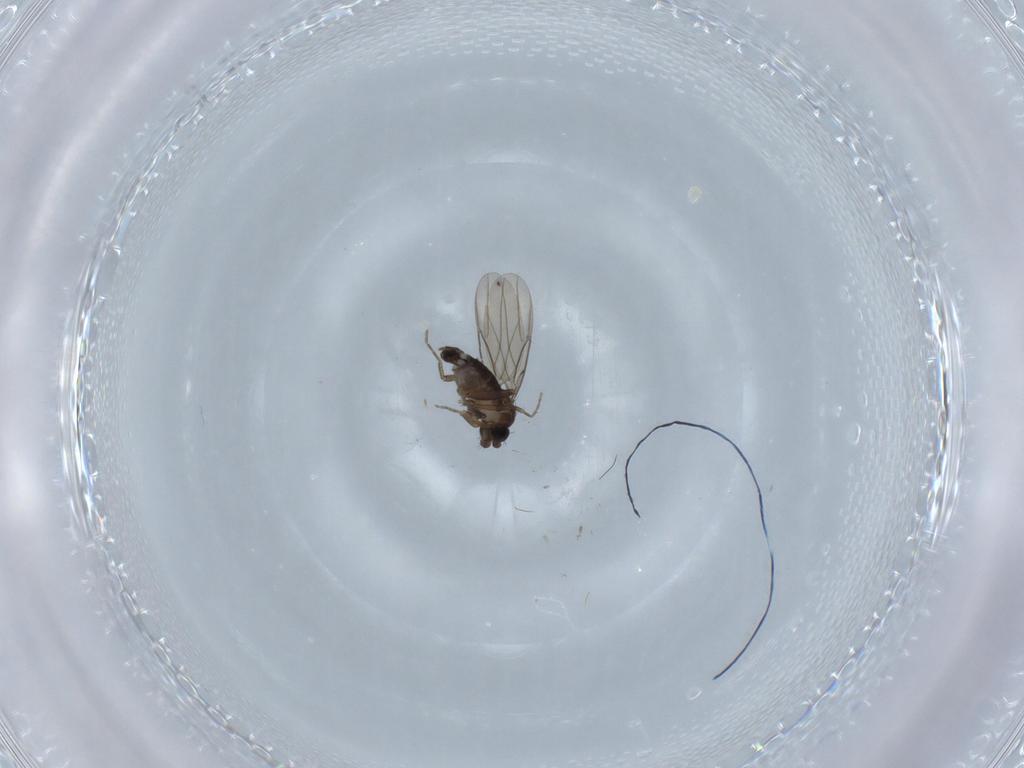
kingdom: Animalia
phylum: Arthropoda
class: Insecta
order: Diptera
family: Phoridae
